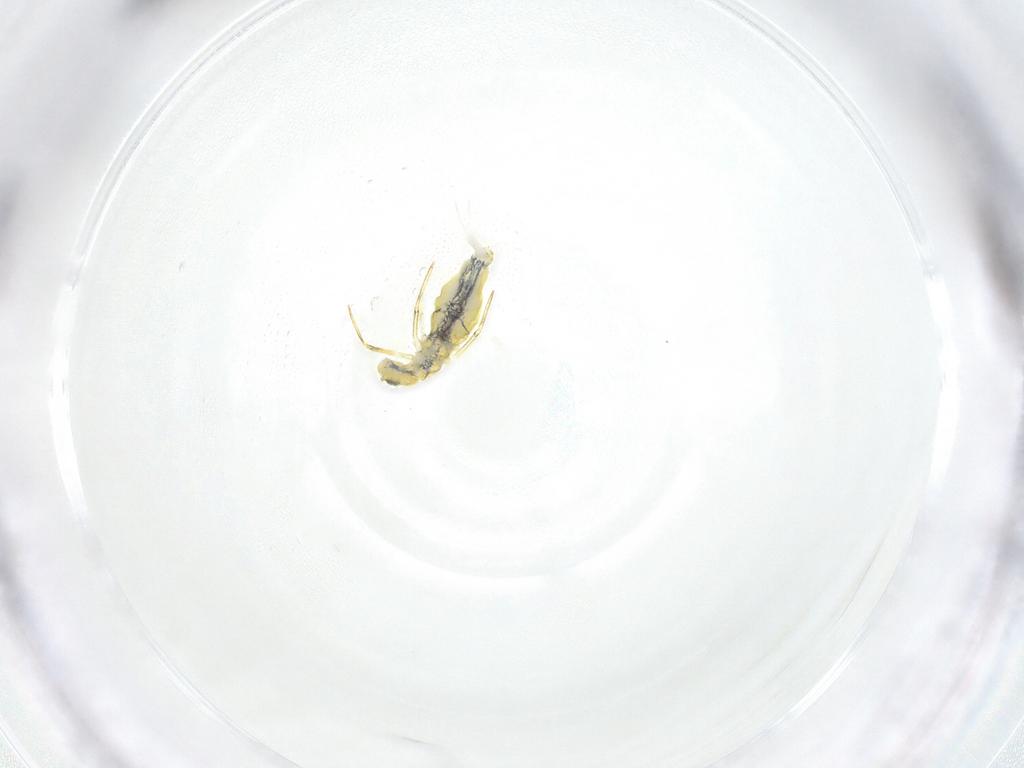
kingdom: Animalia
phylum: Arthropoda
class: Collembola
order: Entomobryomorpha
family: Paronellidae
